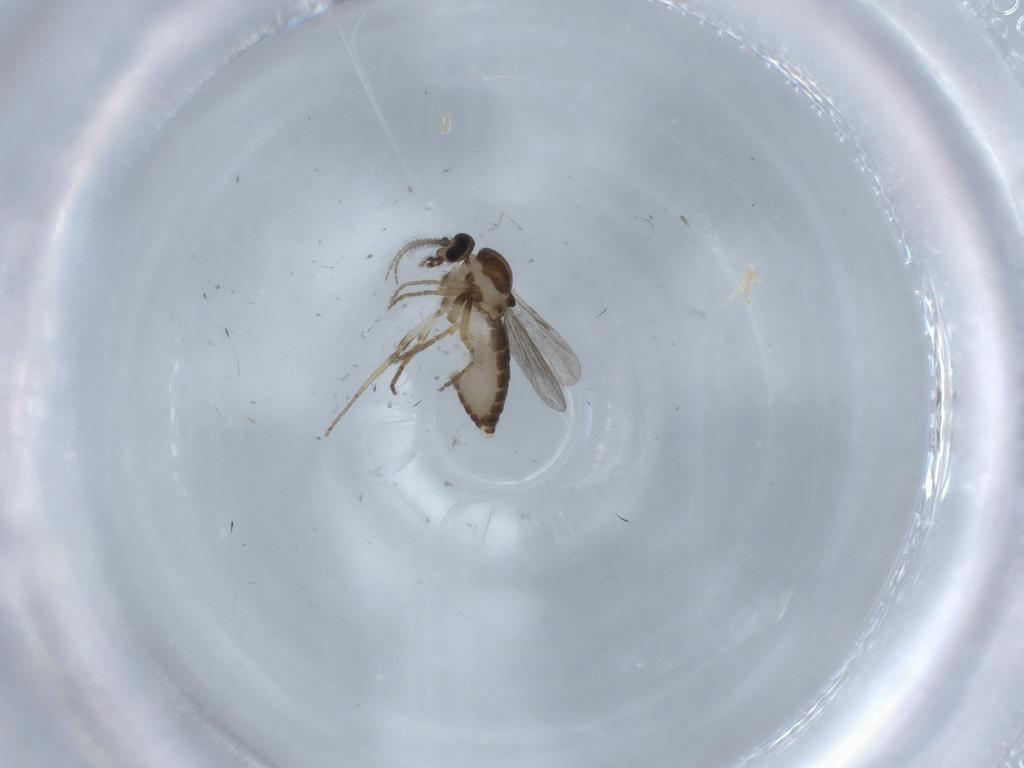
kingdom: Animalia
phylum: Arthropoda
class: Insecta
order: Diptera
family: Ceratopogonidae
